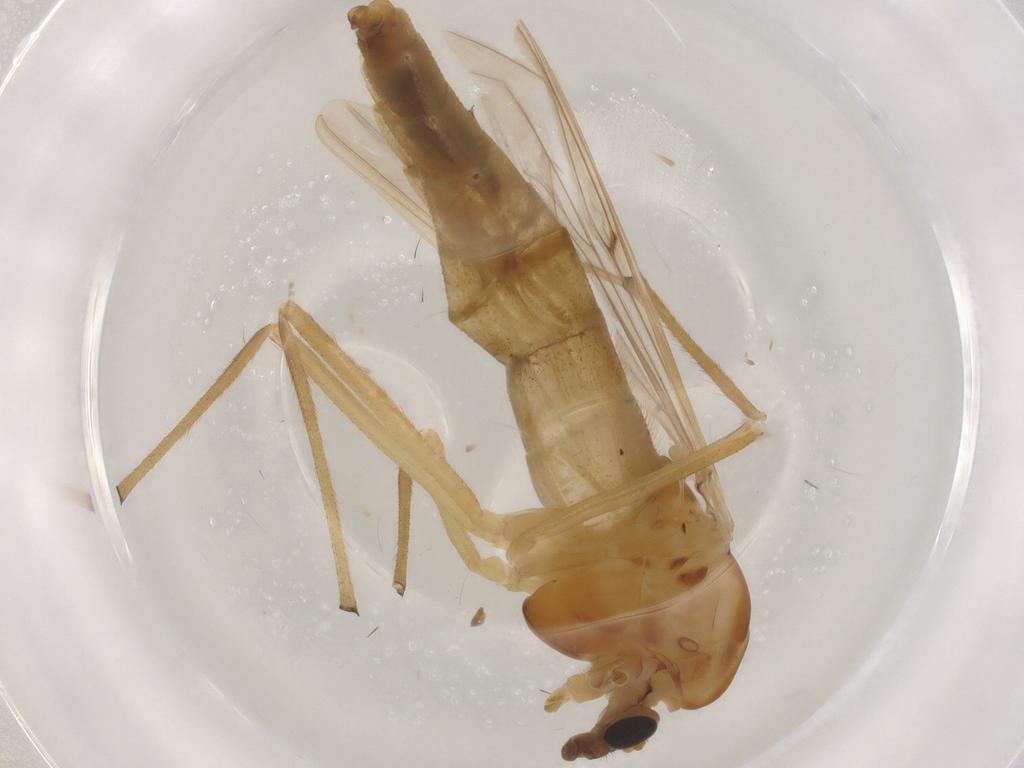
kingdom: Animalia
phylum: Arthropoda
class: Insecta
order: Diptera
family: Chironomidae
